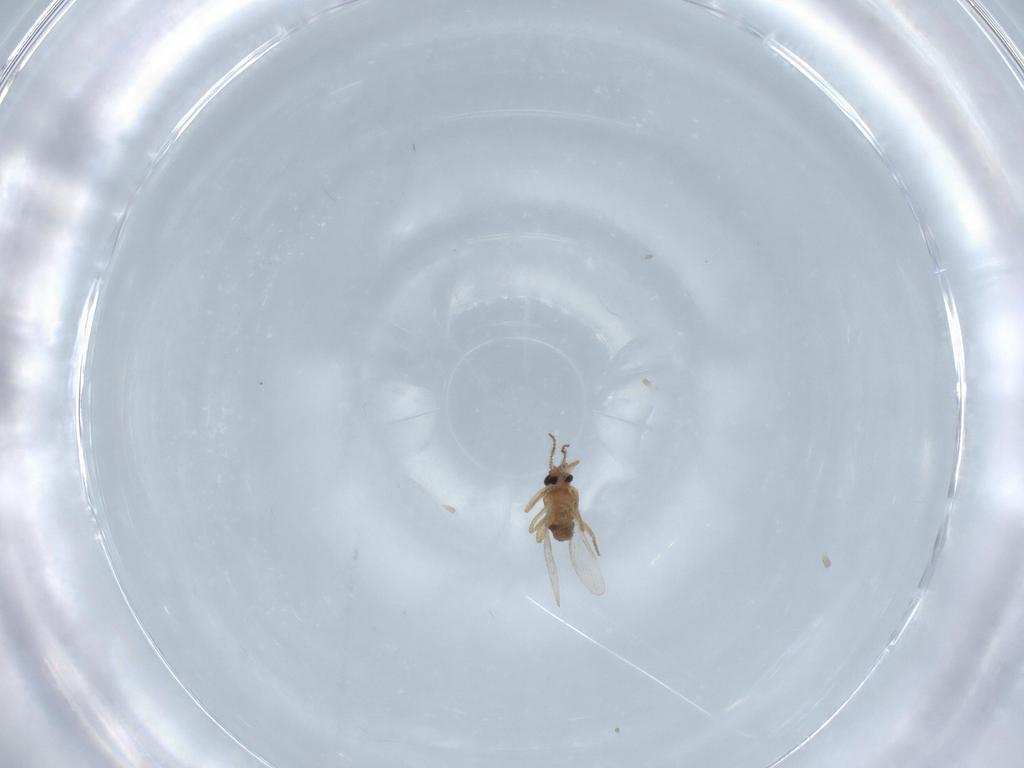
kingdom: Animalia
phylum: Arthropoda
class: Insecta
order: Diptera
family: Ceratopogonidae
